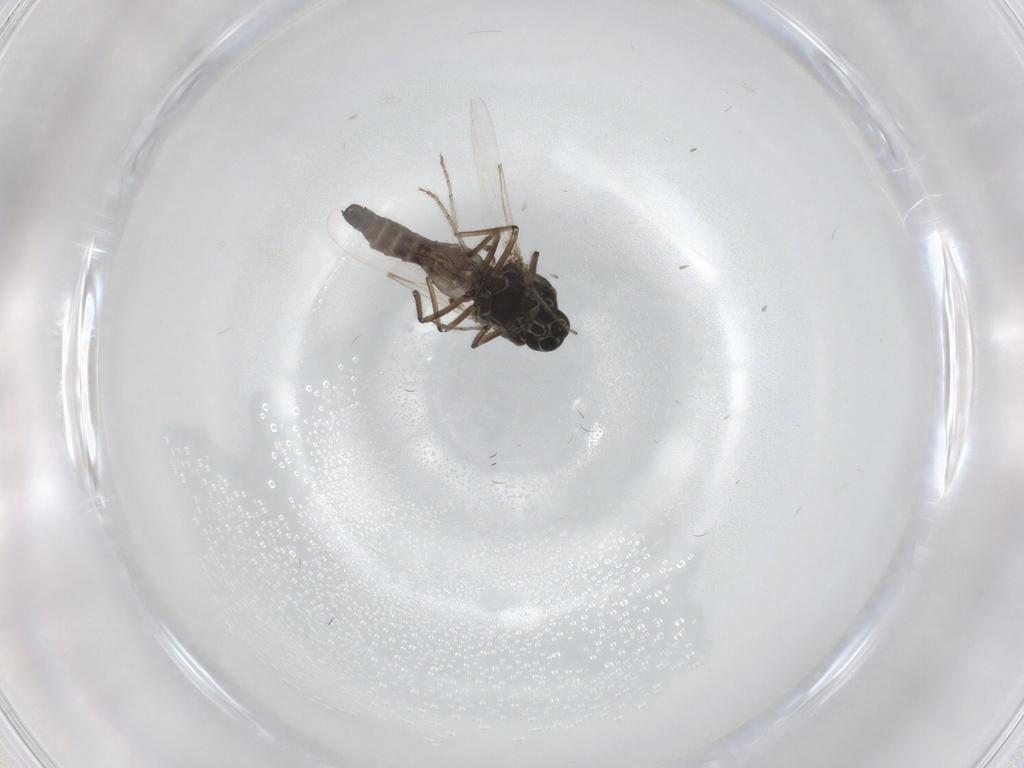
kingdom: Animalia
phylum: Arthropoda
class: Insecta
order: Diptera
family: Ceratopogonidae
